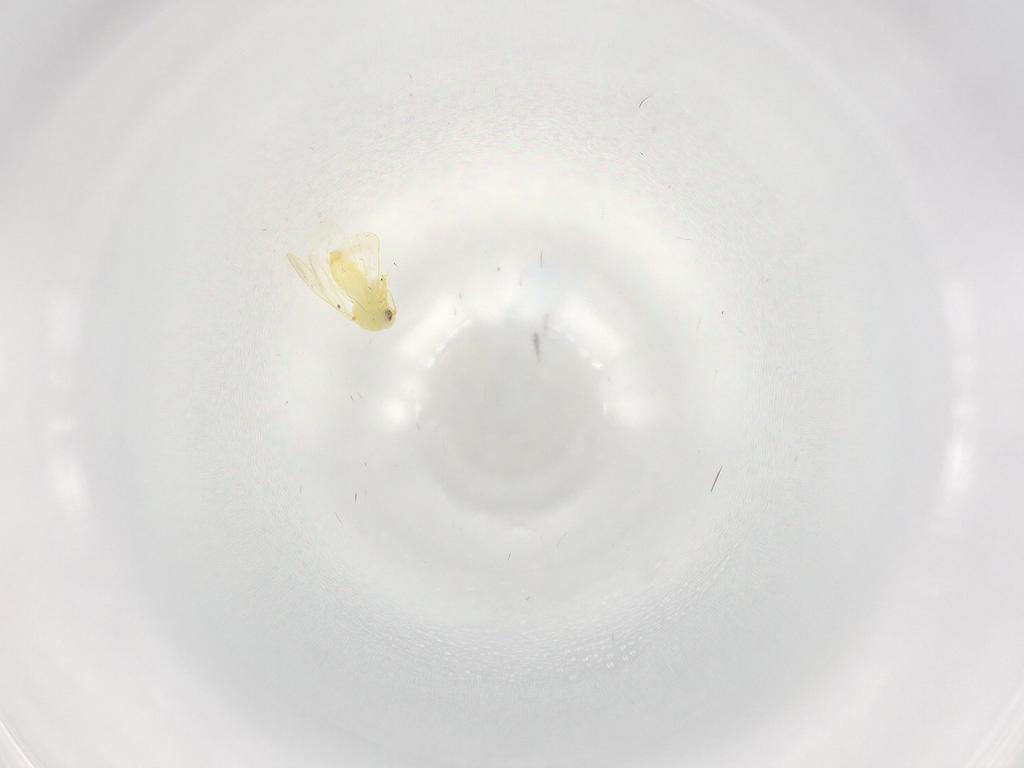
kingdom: Animalia
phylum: Arthropoda
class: Insecta
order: Hemiptera
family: Aleyrodidae
